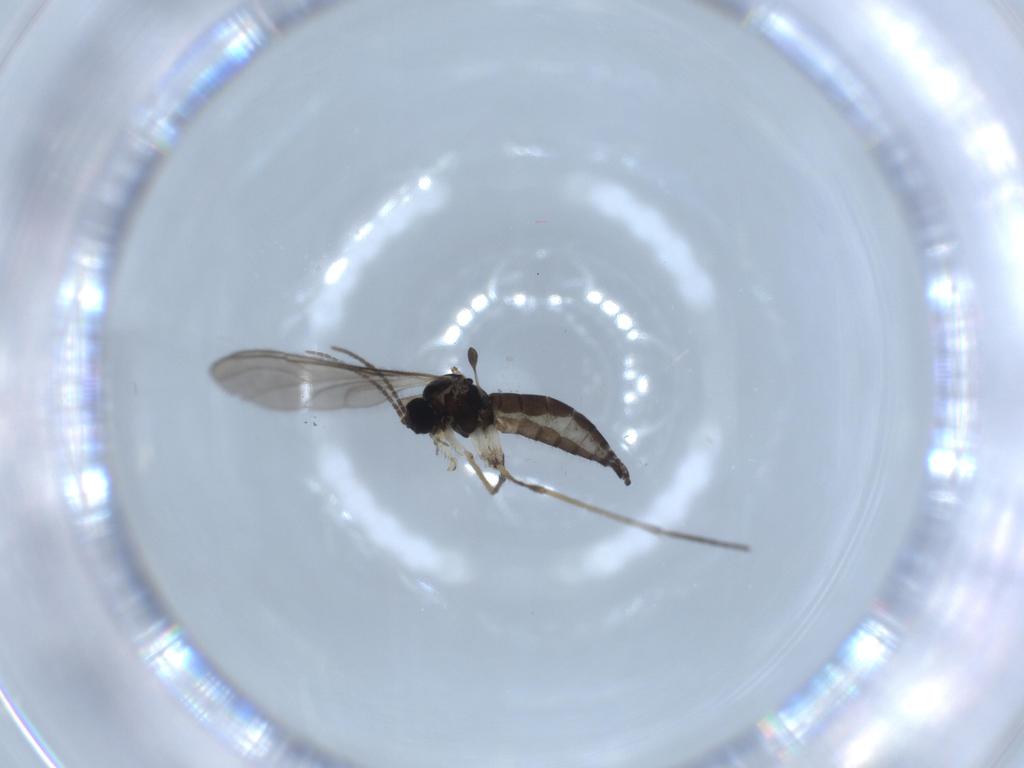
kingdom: Animalia
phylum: Arthropoda
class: Insecta
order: Diptera
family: Sciaridae
